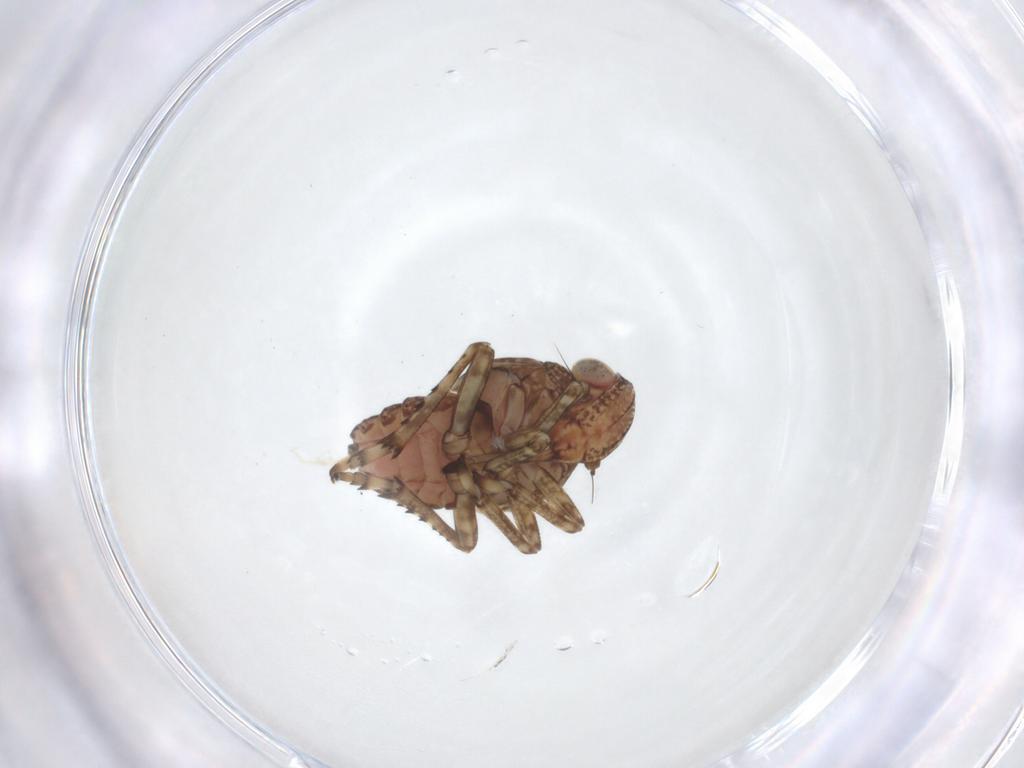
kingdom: Animalia
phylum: Arthropoda
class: Insecta
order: Hemiptera
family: Tropiduchidae
